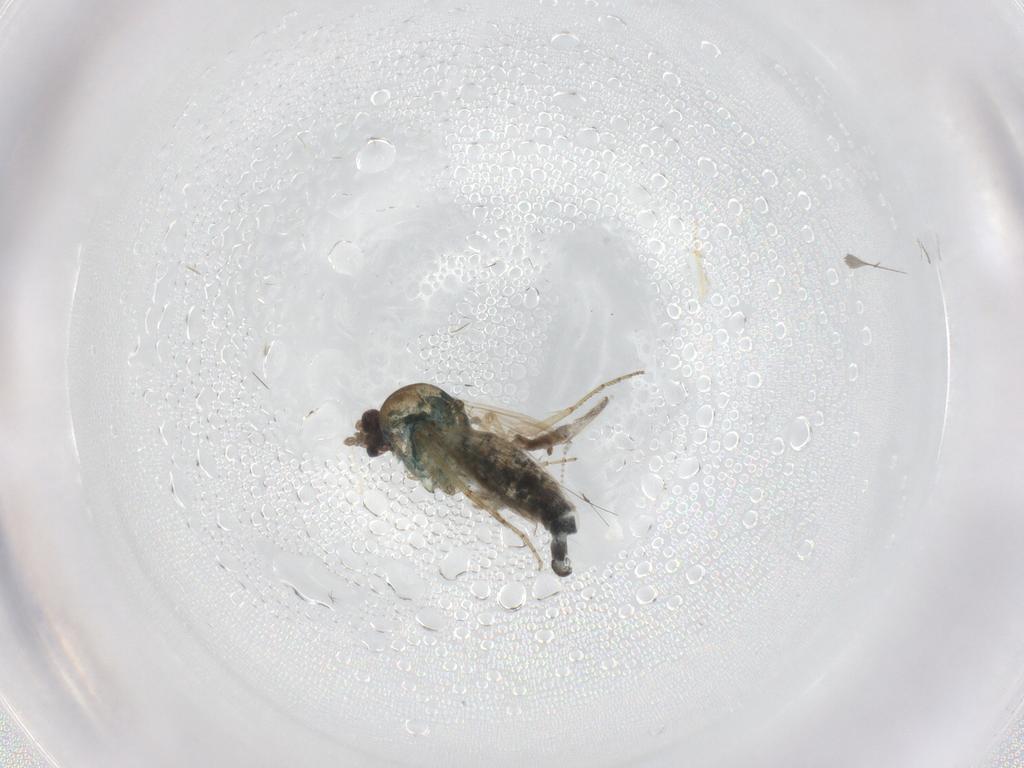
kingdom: Animalia
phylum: Arthropoda
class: Insecta
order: Diptera
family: Ceratopogonidae
